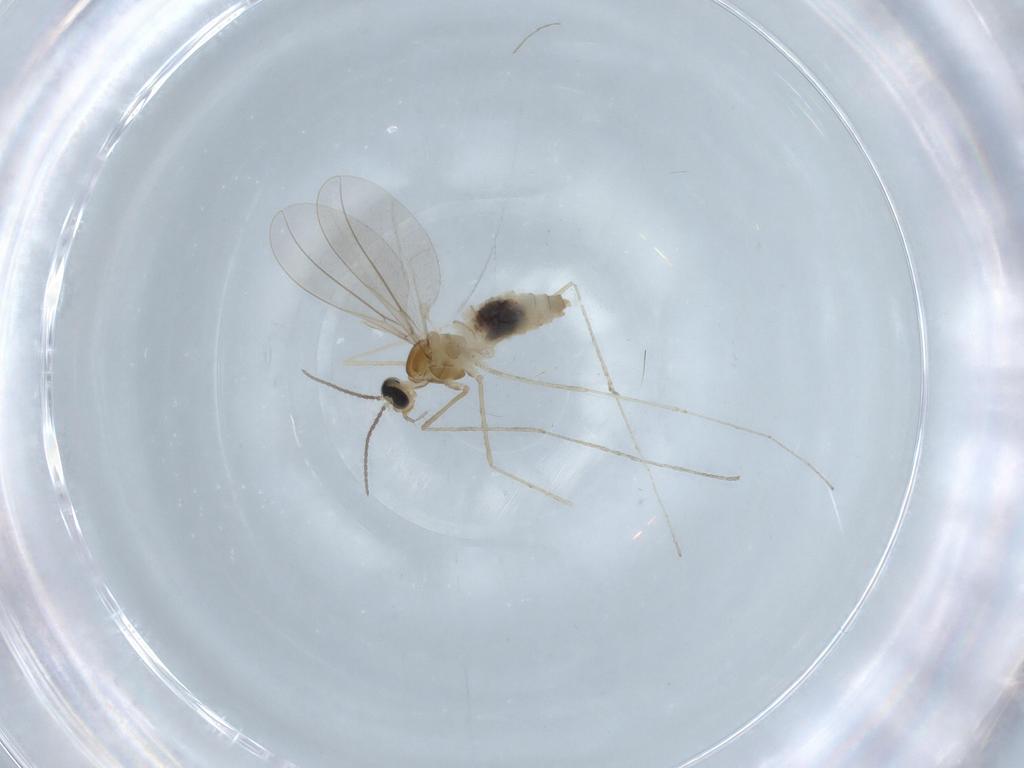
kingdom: Animalia
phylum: Arthropoda
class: Insecta
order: Diptera
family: Cecidomyiidae
